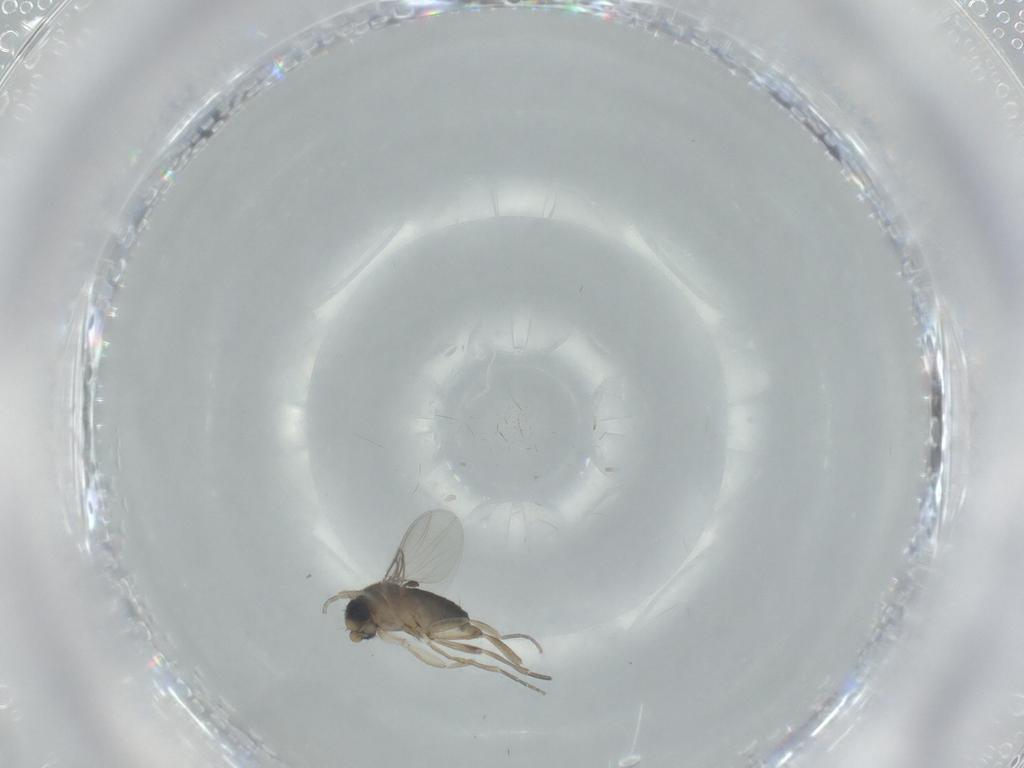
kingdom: Animalia
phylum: Arthropoda
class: Insecta
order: Diptera
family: Phoridae
